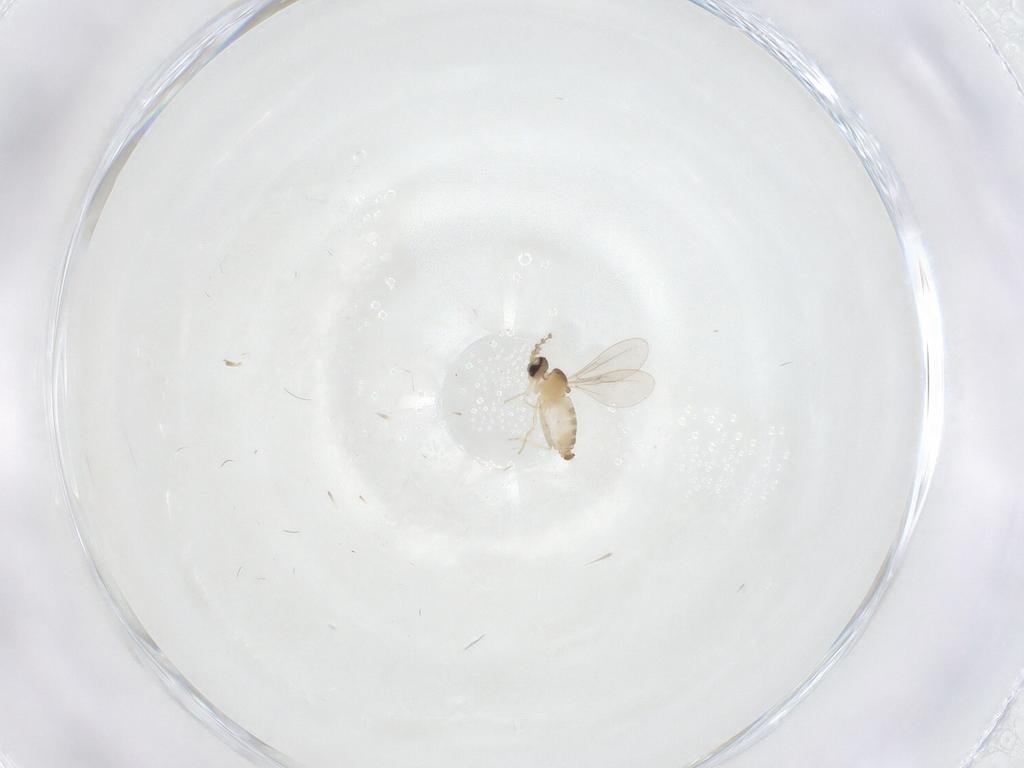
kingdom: Animalia
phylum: Arthropoda
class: Insecta
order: Diptera
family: Cecidomyiidae
